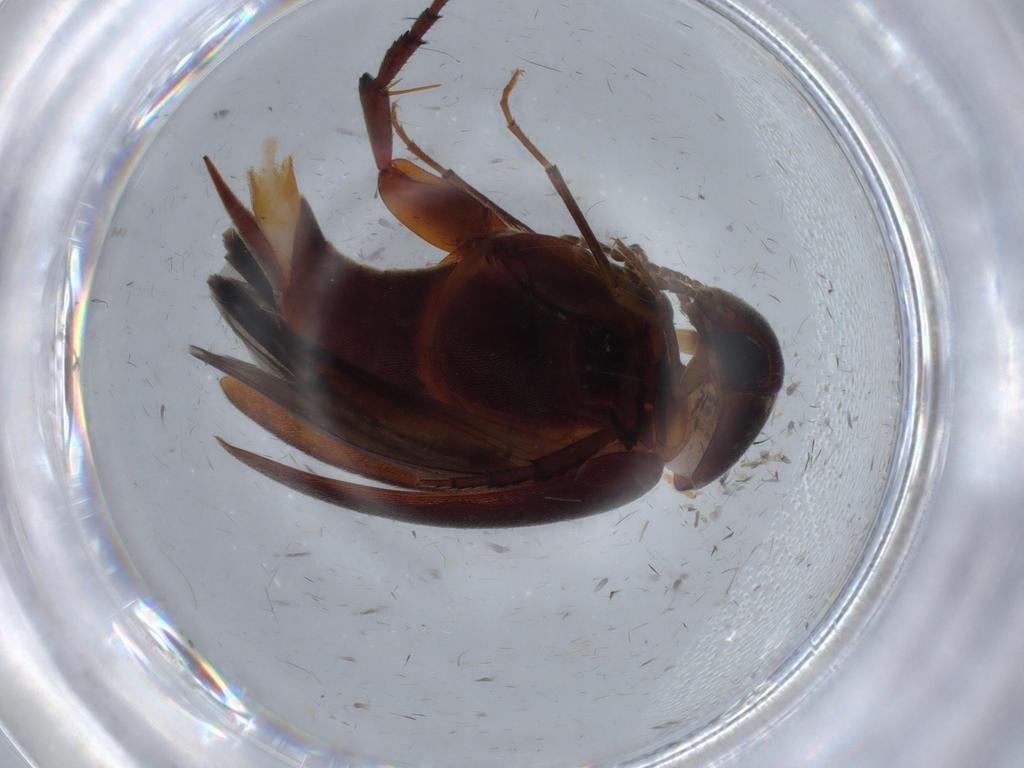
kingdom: Animalia
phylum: Arthropoda
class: Insecta
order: Coleoptera
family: Mordellidae
